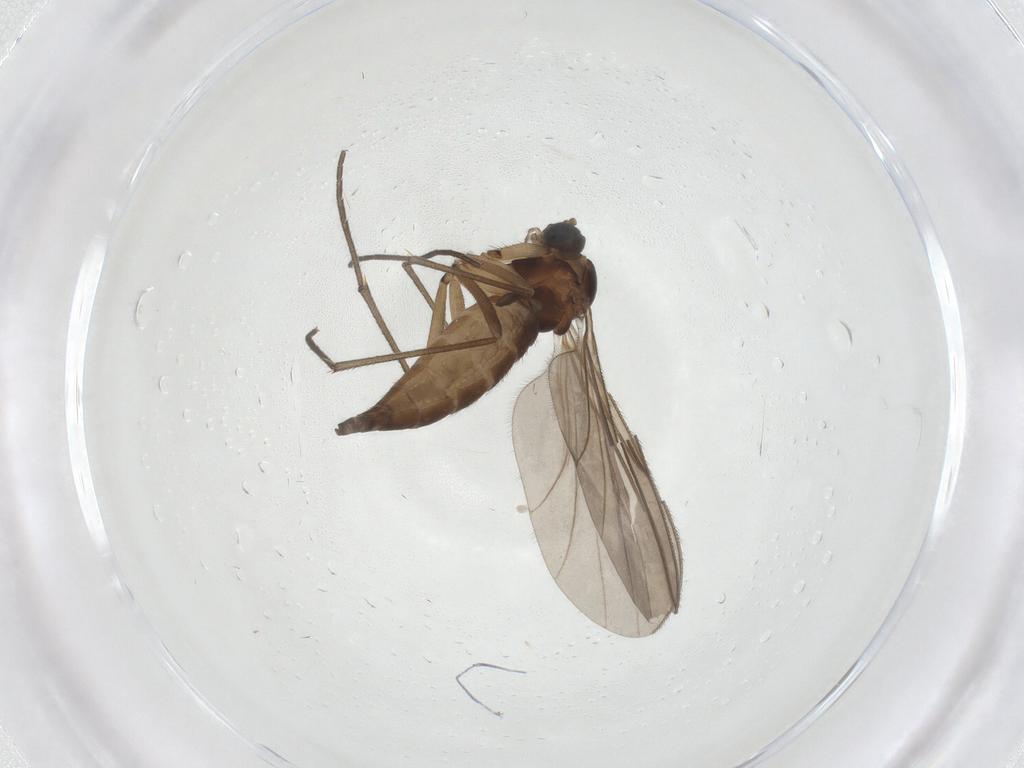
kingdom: Animalia
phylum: Arthropoda
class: Insecta
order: Diptera
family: Sciaridae
